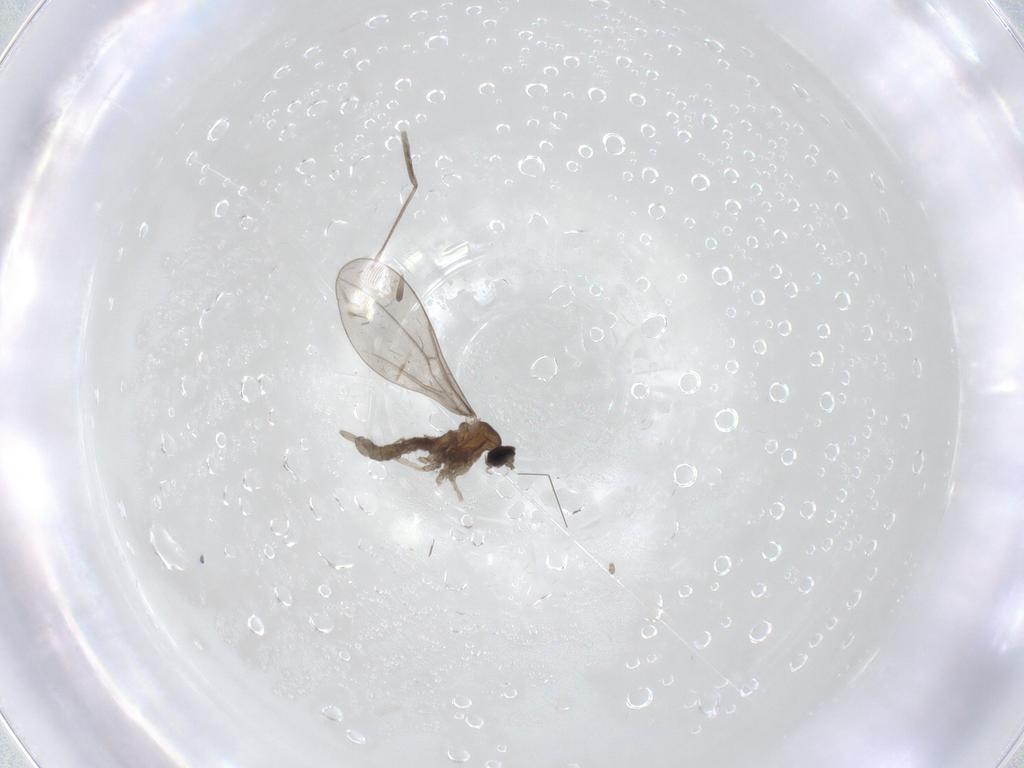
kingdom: Animalia
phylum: Arthropoda
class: Insecta
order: Diptera
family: Cecidomyiidae
